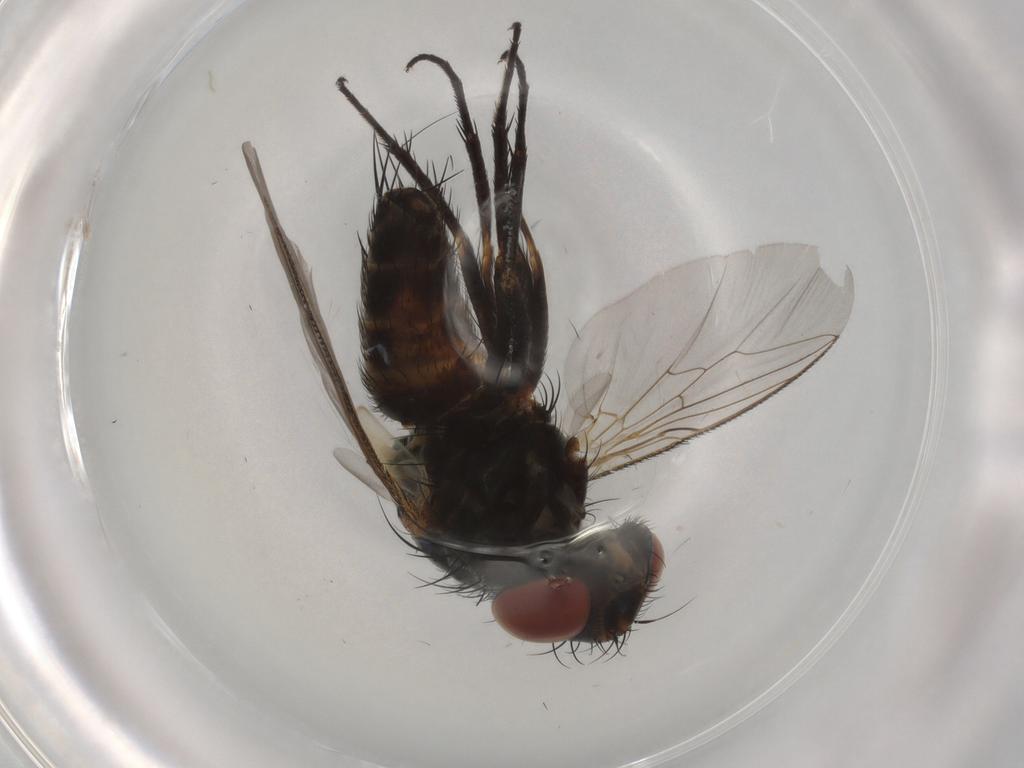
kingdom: Animalia
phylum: Arthropoda
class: Insecta
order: Diptera
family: Sarcophagidae
